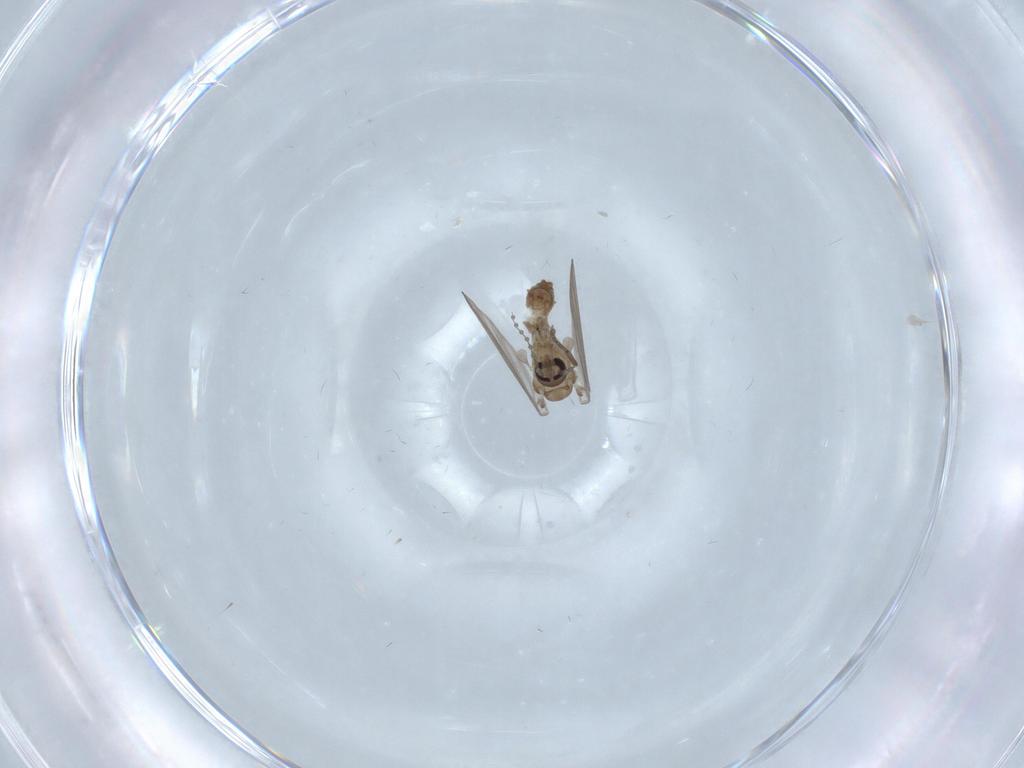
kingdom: Animalia
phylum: Arthropoda
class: Insecta
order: Diptera
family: Psychodidae
